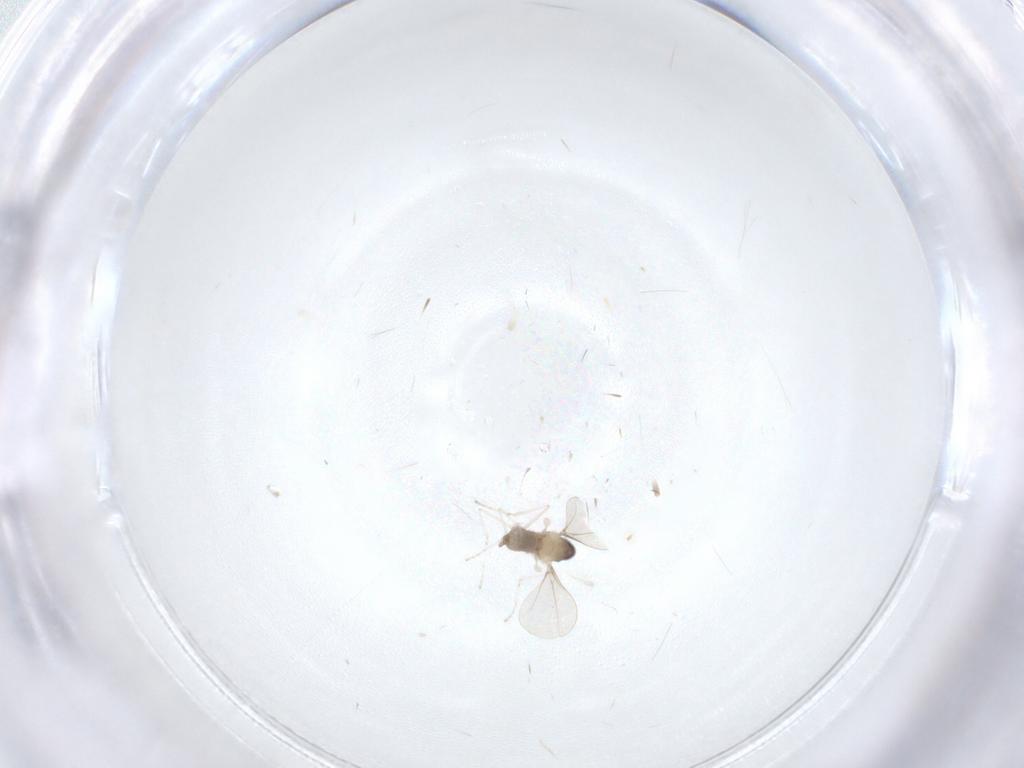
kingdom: Animalia
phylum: Arthropoda
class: Insecta
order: Diptera
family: Cecidomyiidae
